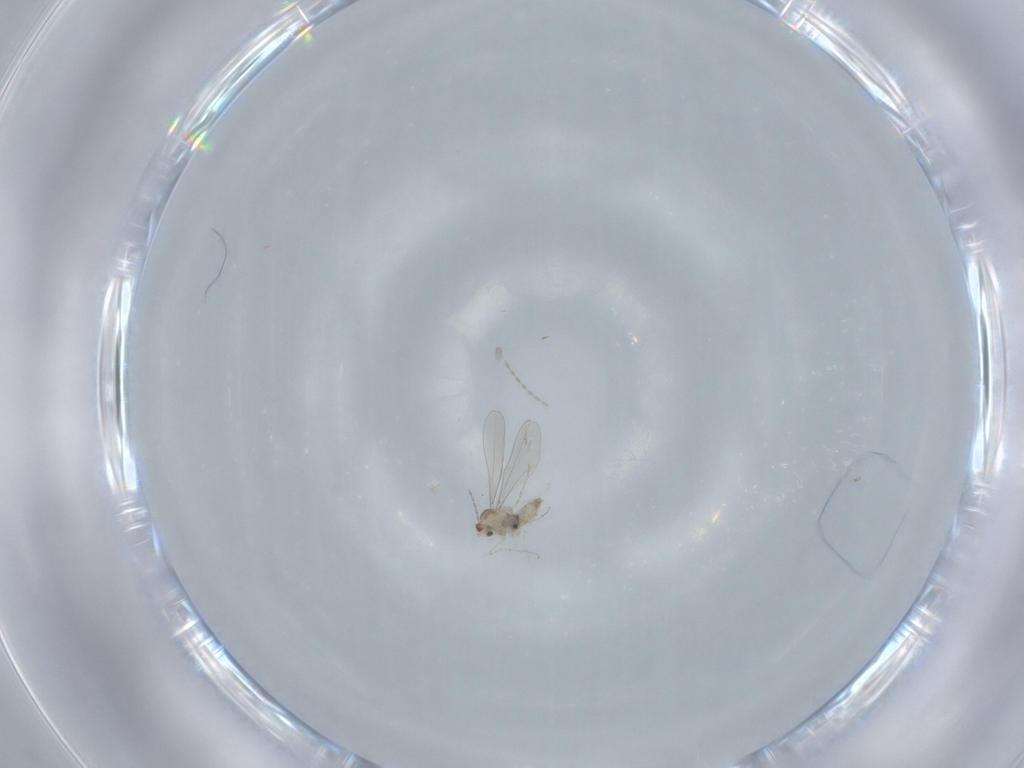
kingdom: Animalia
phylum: Arthropoda
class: Insecta
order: Diptera
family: Cecidomyiidae
